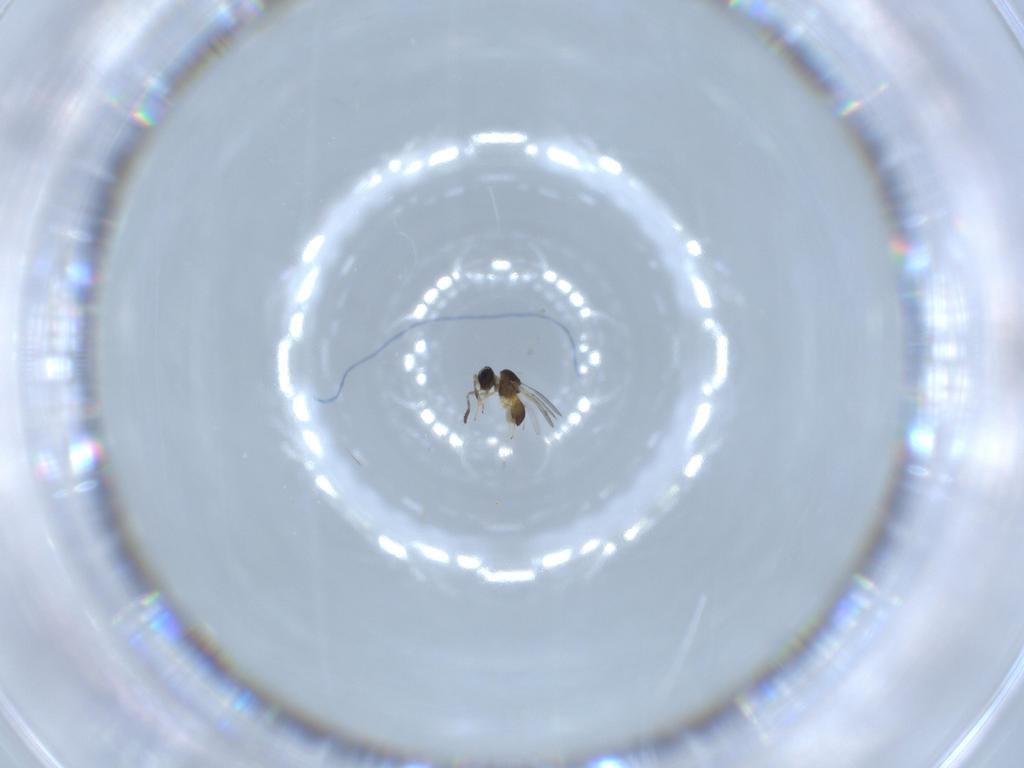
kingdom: Animalia
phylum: Arthropoda
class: Insecta
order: Hymenoptera
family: Scelionidae
